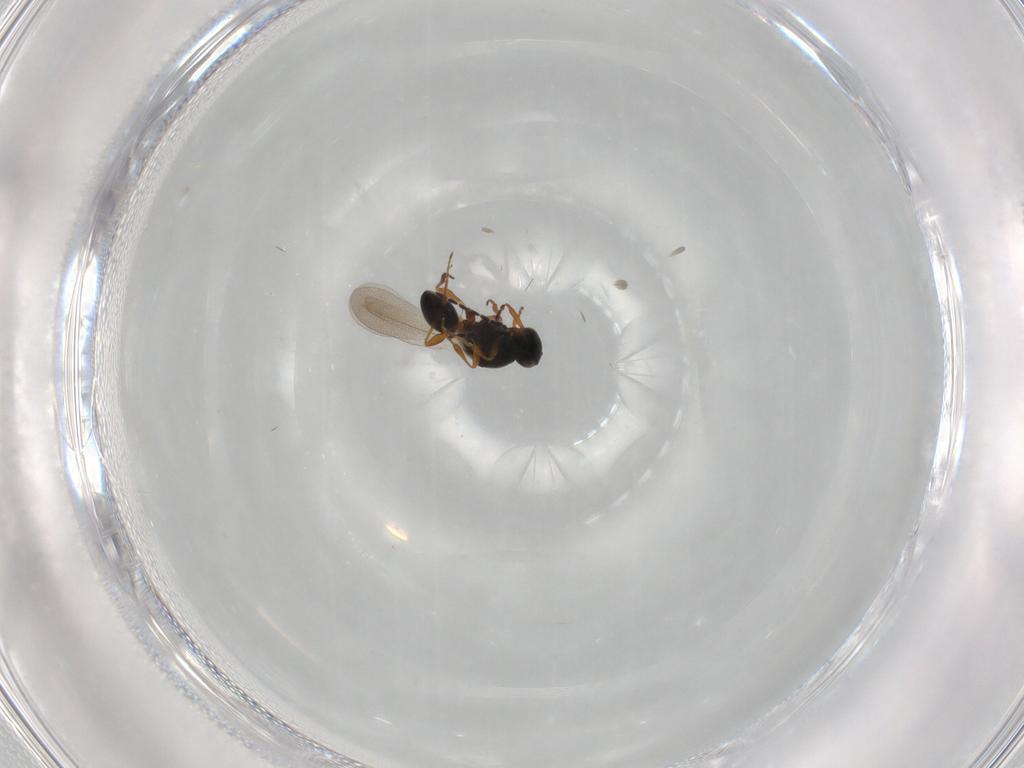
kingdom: Animalia
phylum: Arthropoda
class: Insecta
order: Hymenoptera
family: Platygastridae
